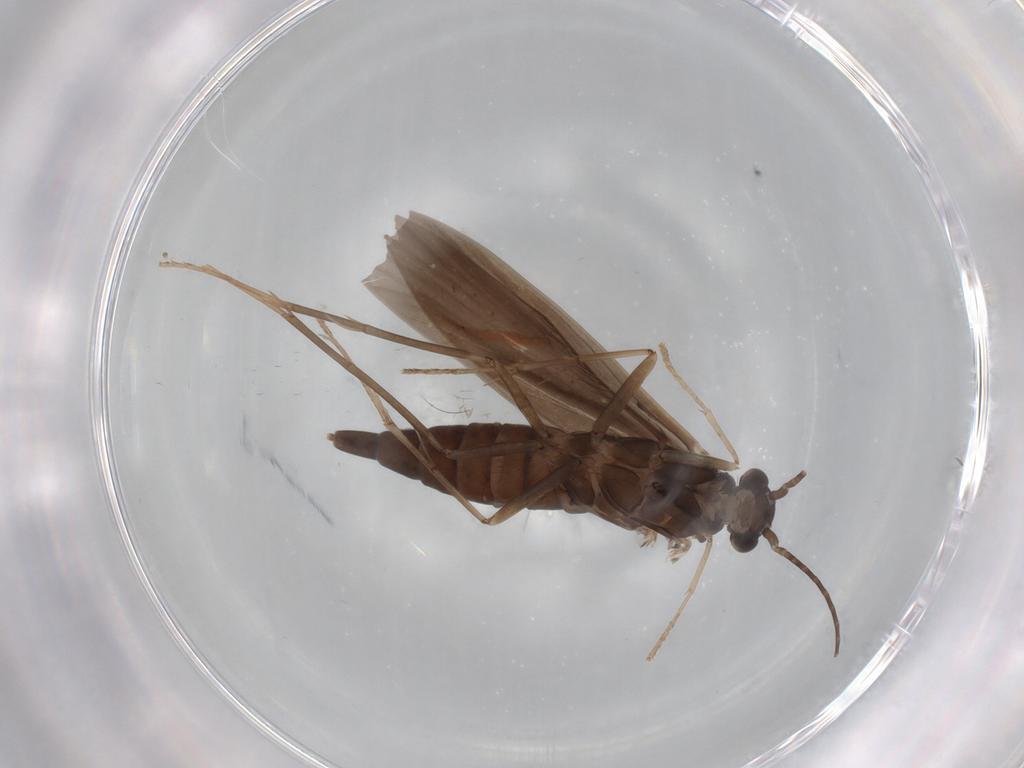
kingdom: Animalia
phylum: Arthropoda
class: Insecta
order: Trichoptera
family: Xiphocentronidae
